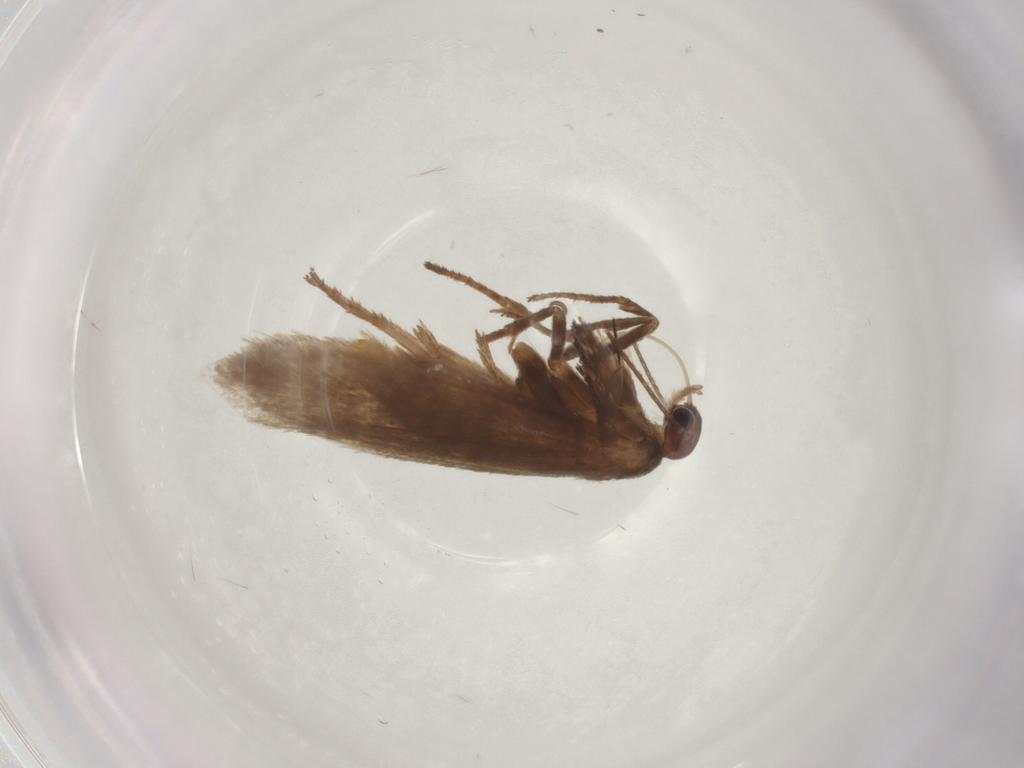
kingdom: Animalia
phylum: Arthropoda
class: Insecta
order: Lepidoptera
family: Limacodidae
